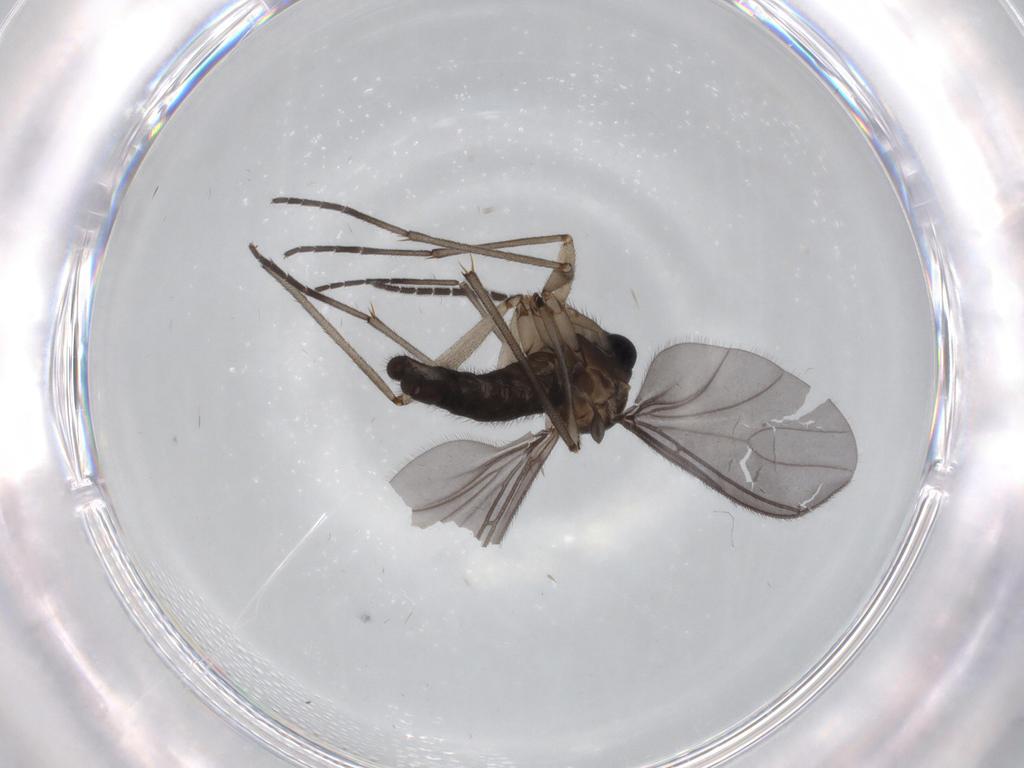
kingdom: Animalia
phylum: Arthropoda
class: Insecta
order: Diptera
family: Sciaridae
